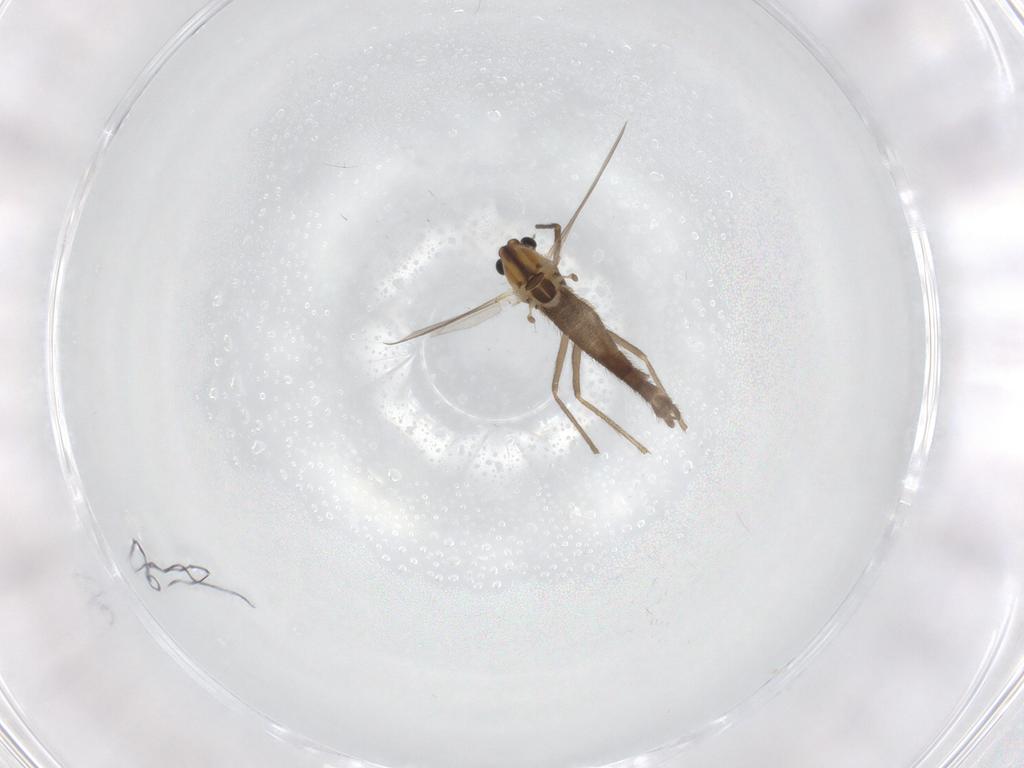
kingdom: Animalia
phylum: Arthropoda
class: Insecta
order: Diptera
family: Chironomidae
